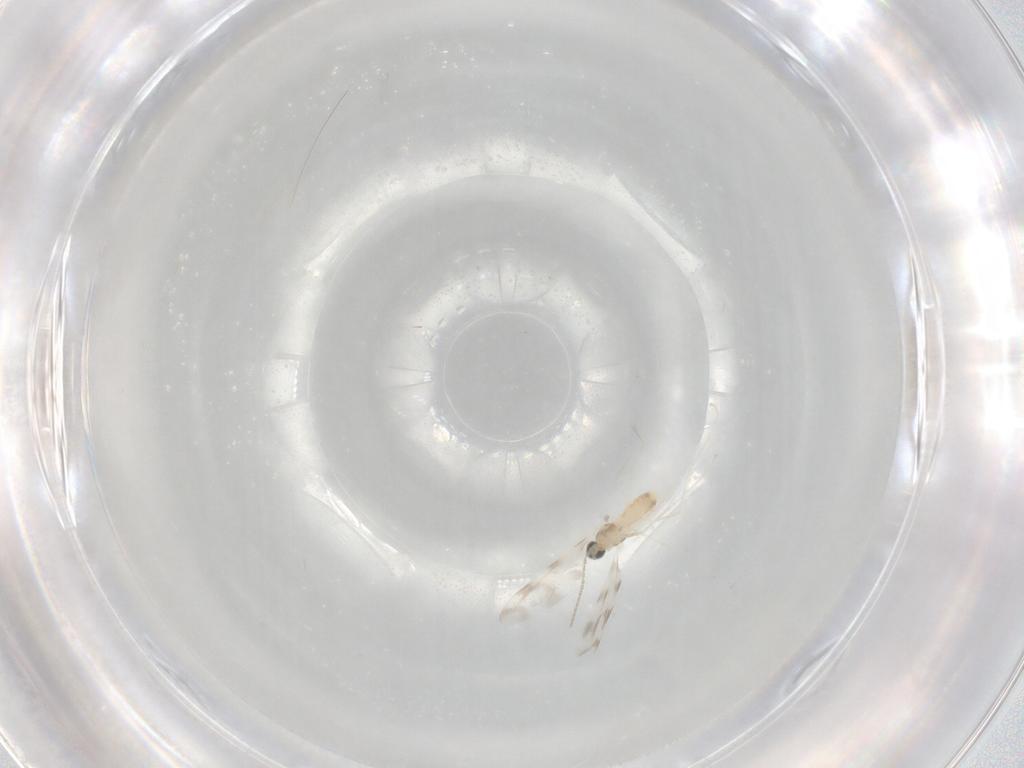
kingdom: Animalia
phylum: Arthropoda
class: Insecta
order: Diptera
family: Cecidomyiidae
